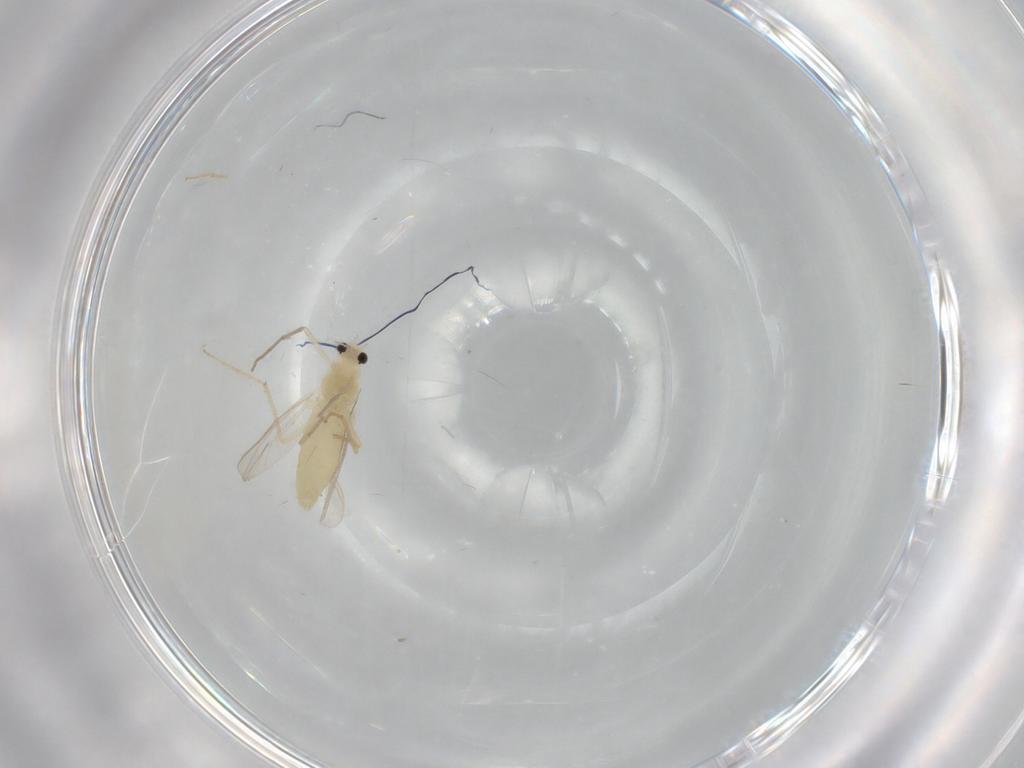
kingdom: Animalia
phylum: Arthropoda
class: Insecta
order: Diptera
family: Chironomidae
